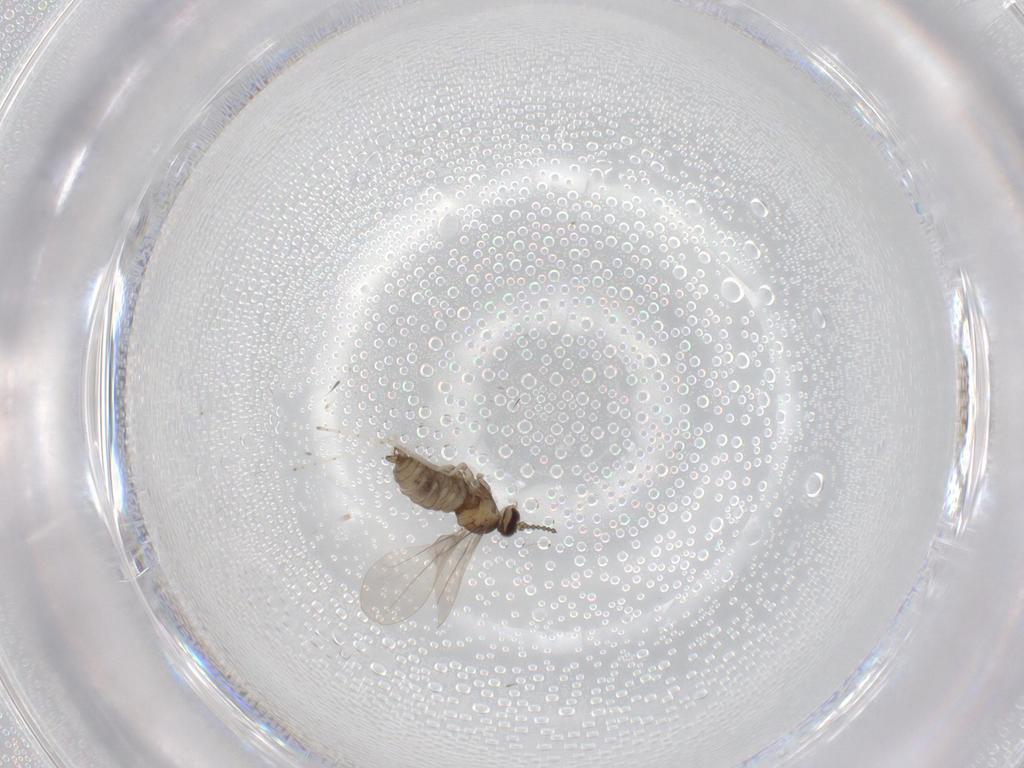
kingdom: Animalia
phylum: Arthropoda
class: Insecta
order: Diptera
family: Cecidomyiidae
